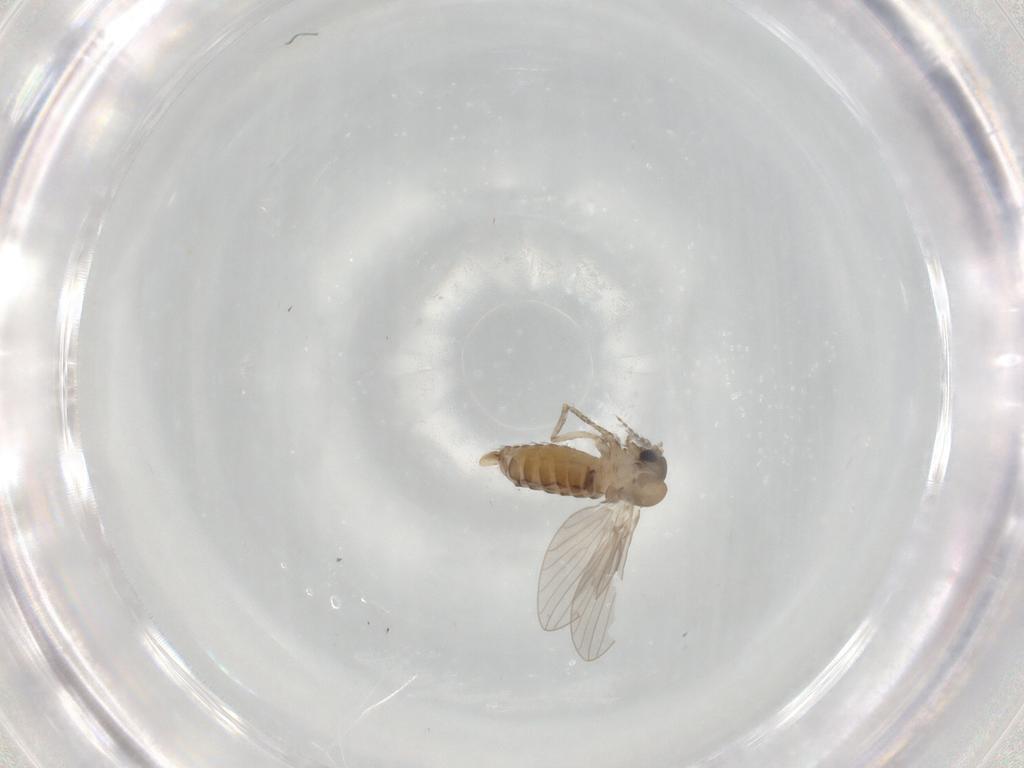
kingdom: Animalia
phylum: Arthropoda
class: Insecta
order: Diptera
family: Psychodidae
